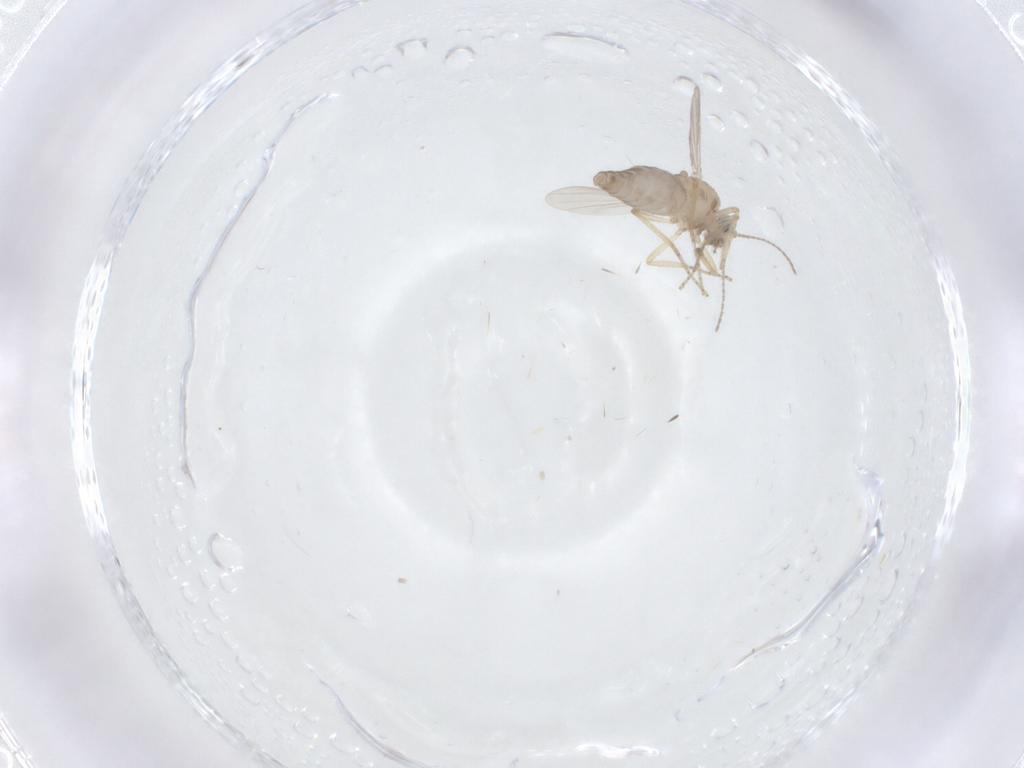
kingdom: Animalia
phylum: Arthropoda
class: Insecta
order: Diptera
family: Ceratopogonidae
